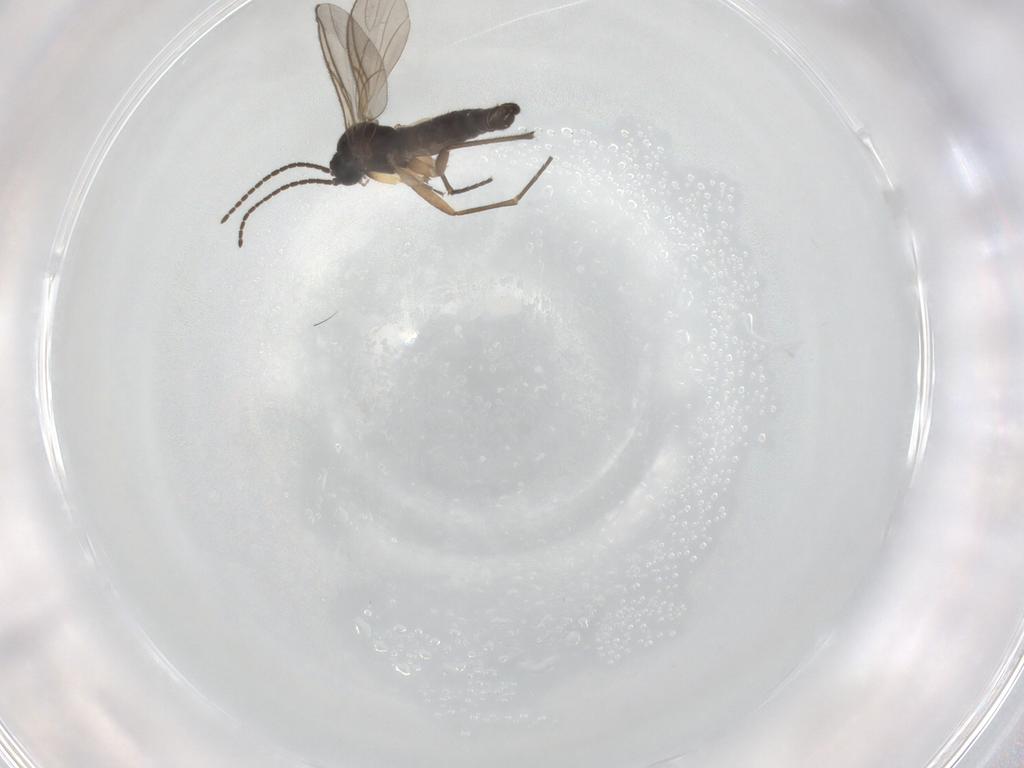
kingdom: Animalia
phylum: Arthropoda
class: Insecta
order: Diptera
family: Sciaridae
